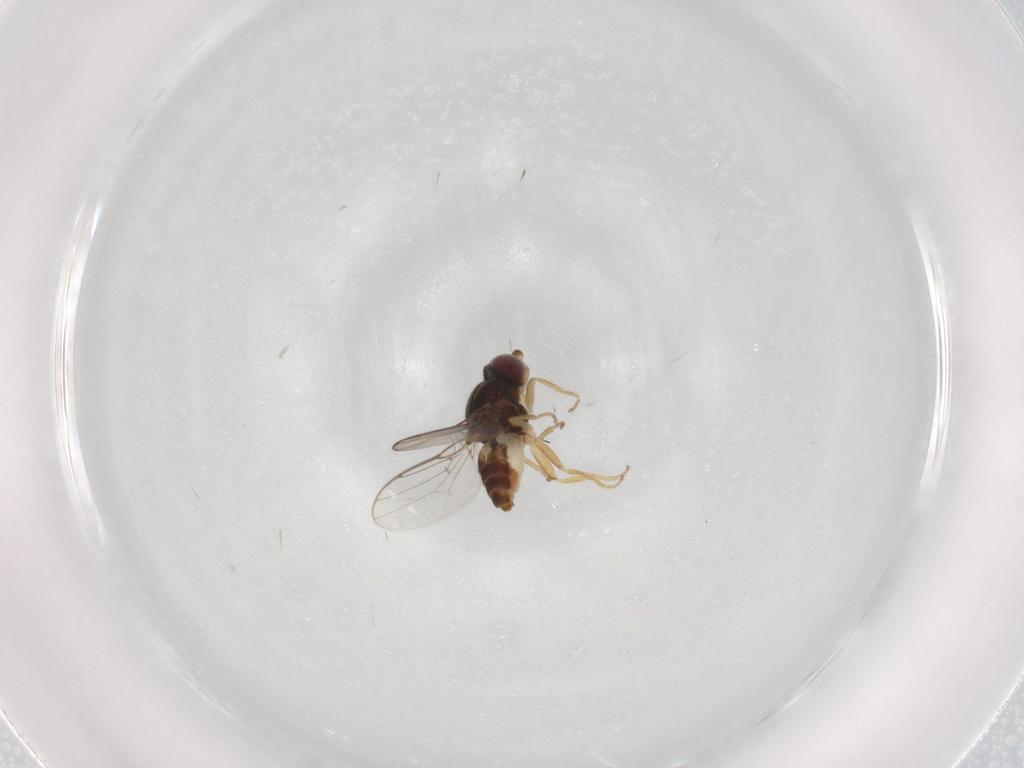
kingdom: Animalia
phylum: Arthropoda
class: Insecta
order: Diptera
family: Chloropidae
